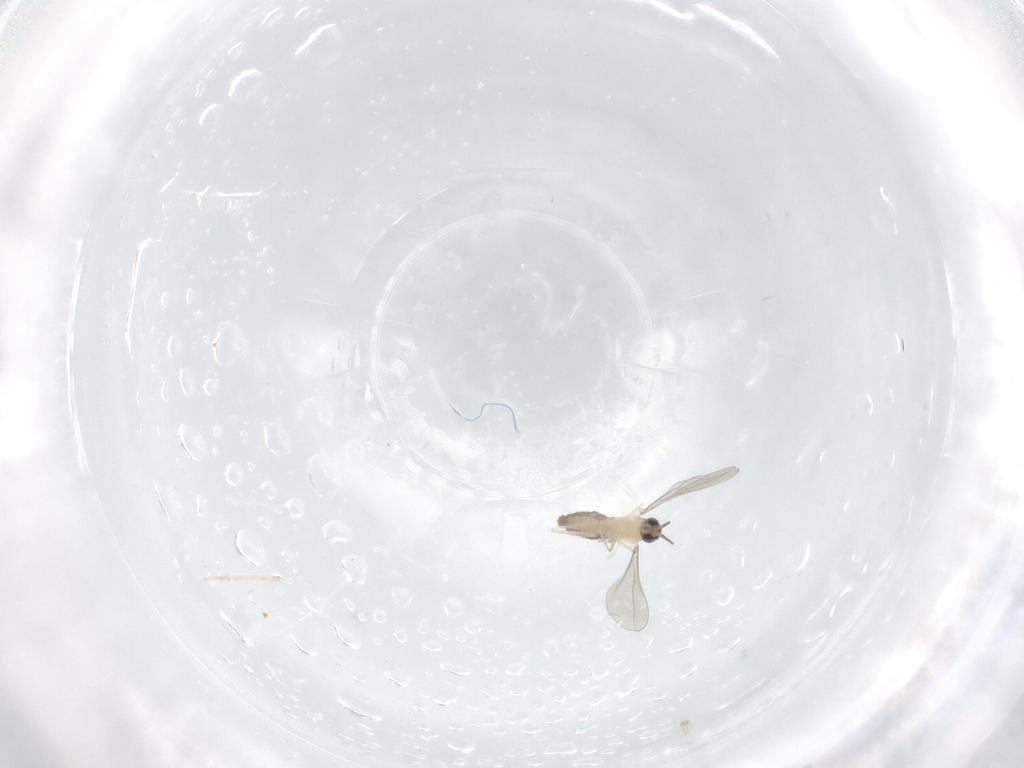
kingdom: Animalia
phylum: Arthropoda
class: Insecta
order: Diptera
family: Cecidomyiidae
